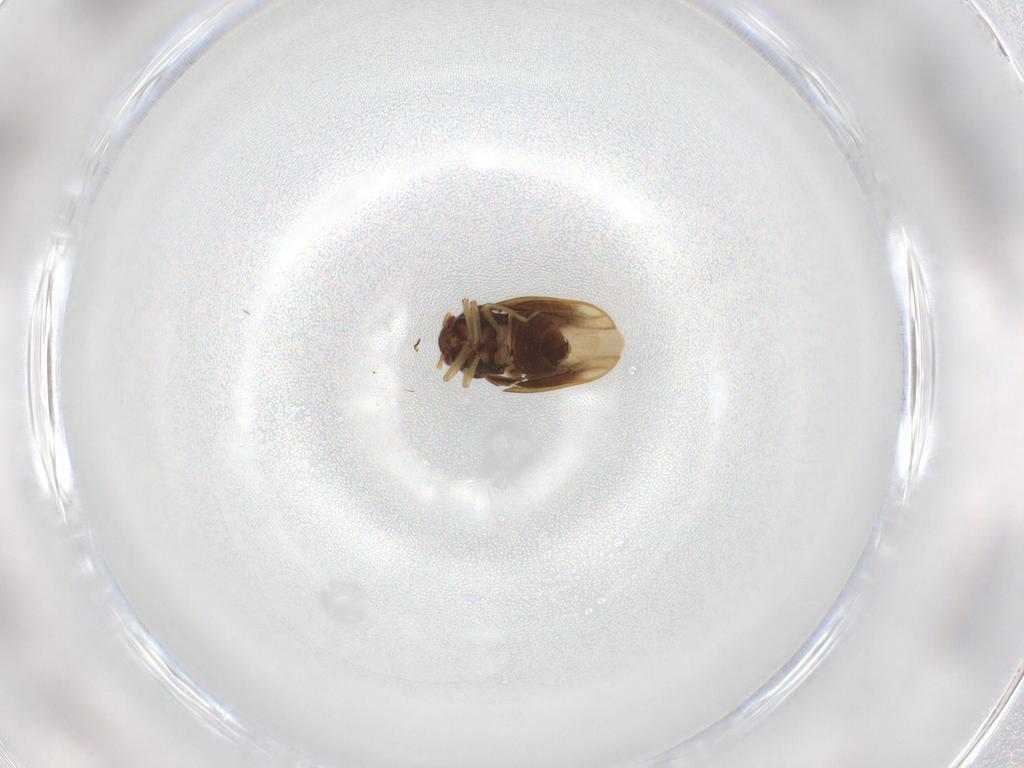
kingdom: Animalia
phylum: Arthropoda
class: Insecta
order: Hemiptera
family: Schizopteridae
